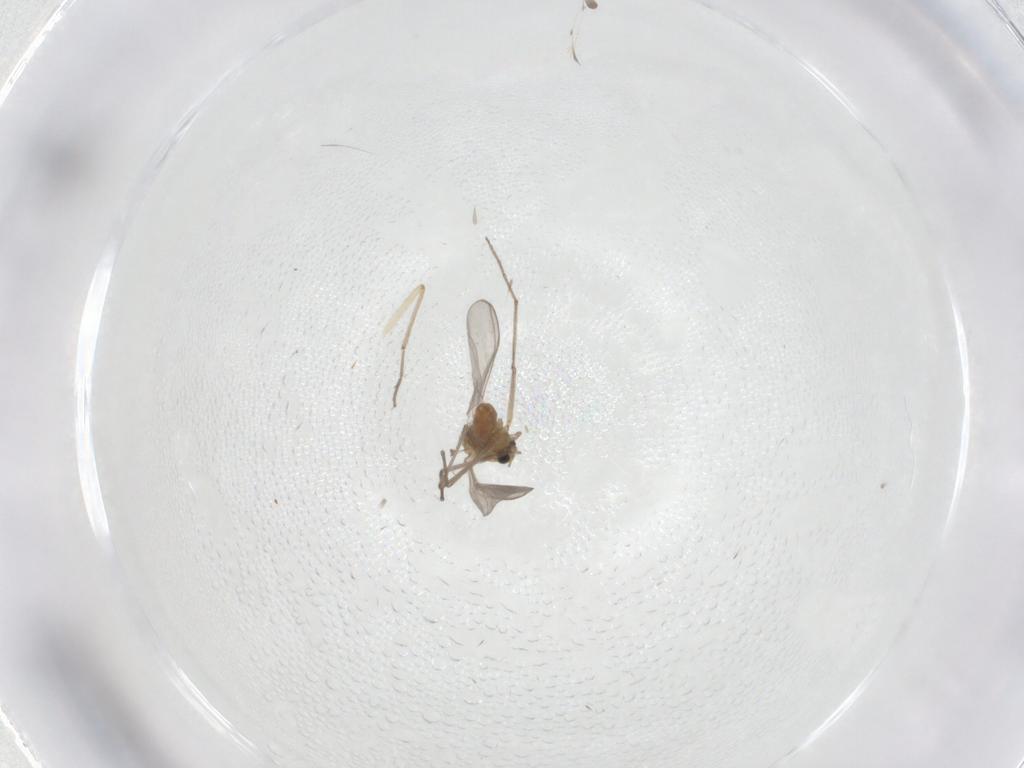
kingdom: Animalia
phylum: Arthropoda
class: Insecta
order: Diptera
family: Chironomidae
